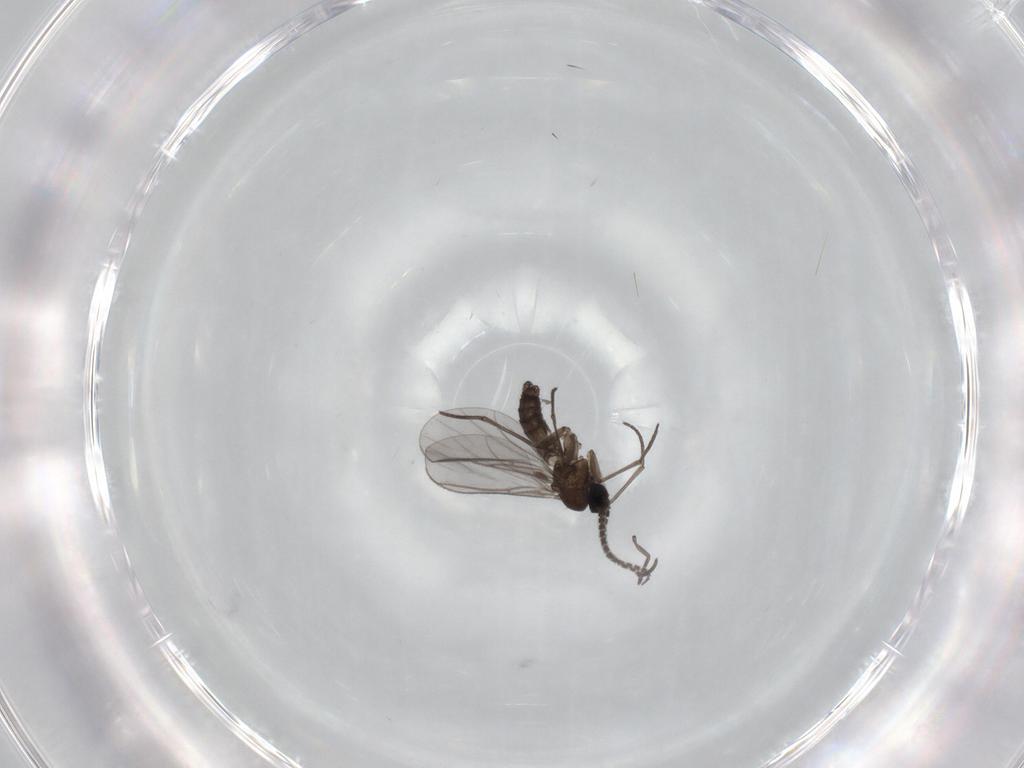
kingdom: Animalia
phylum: Arthropoda
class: Insecta
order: Diptera
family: Sciaridae
